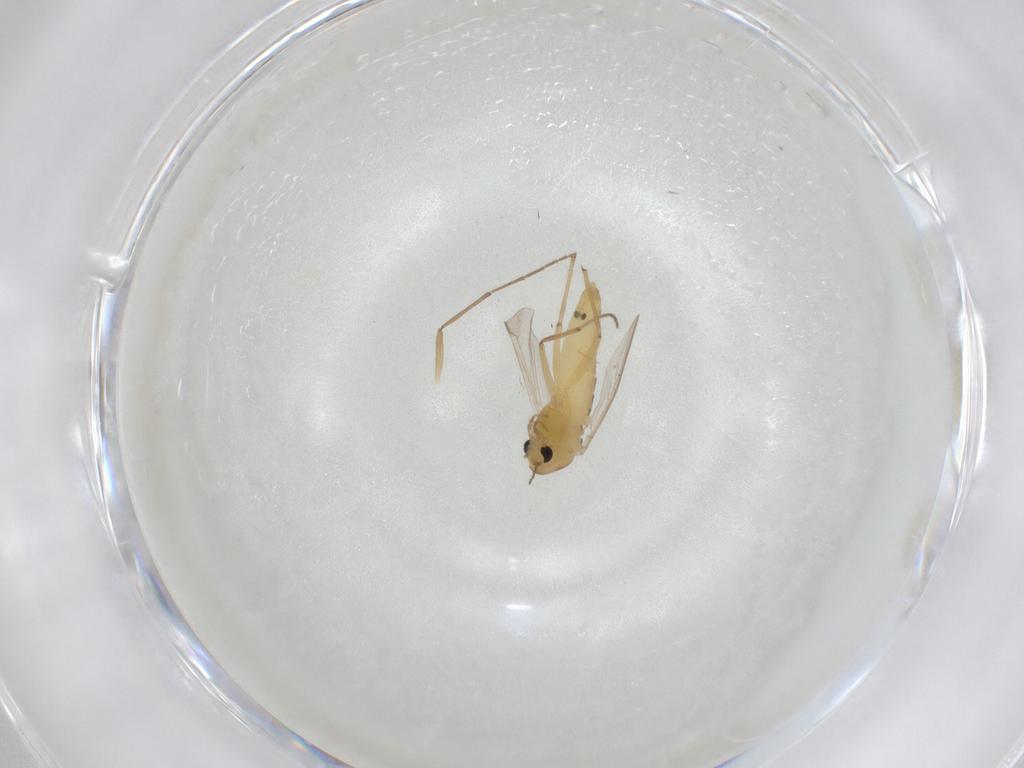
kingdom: Animalia
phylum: Arthropoda
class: Insecta
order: Diptera
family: Chironomidae
